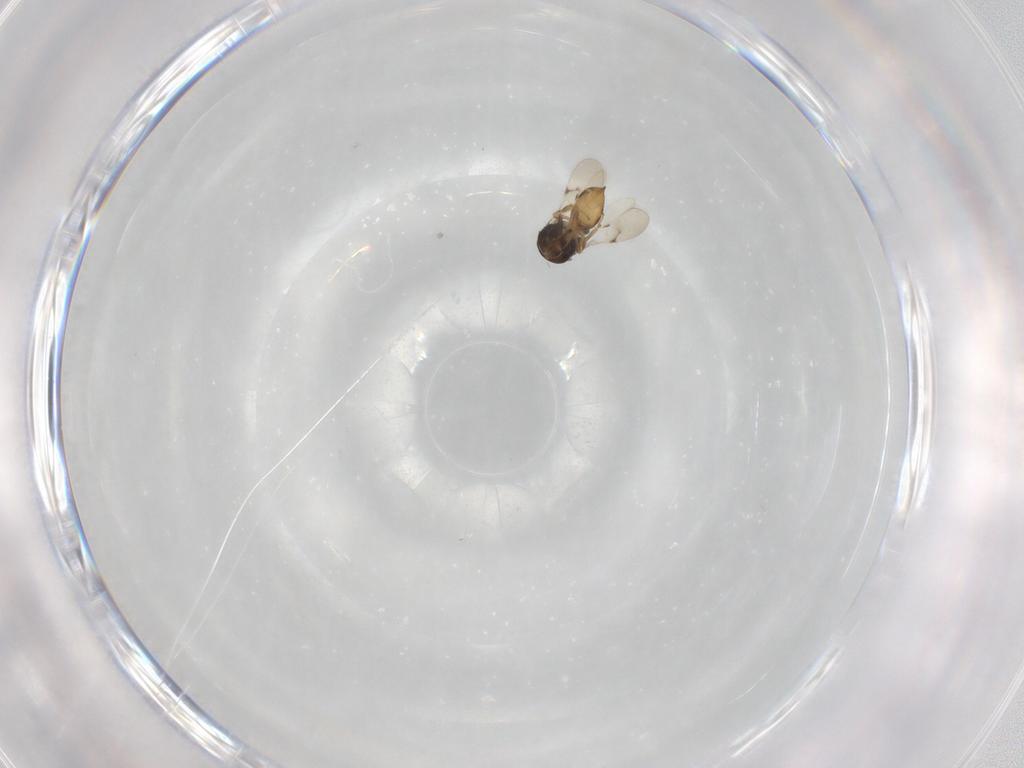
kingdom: Animalia
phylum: Arthropoda
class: Insecta
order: Hymenoptera
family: Scelionidae
